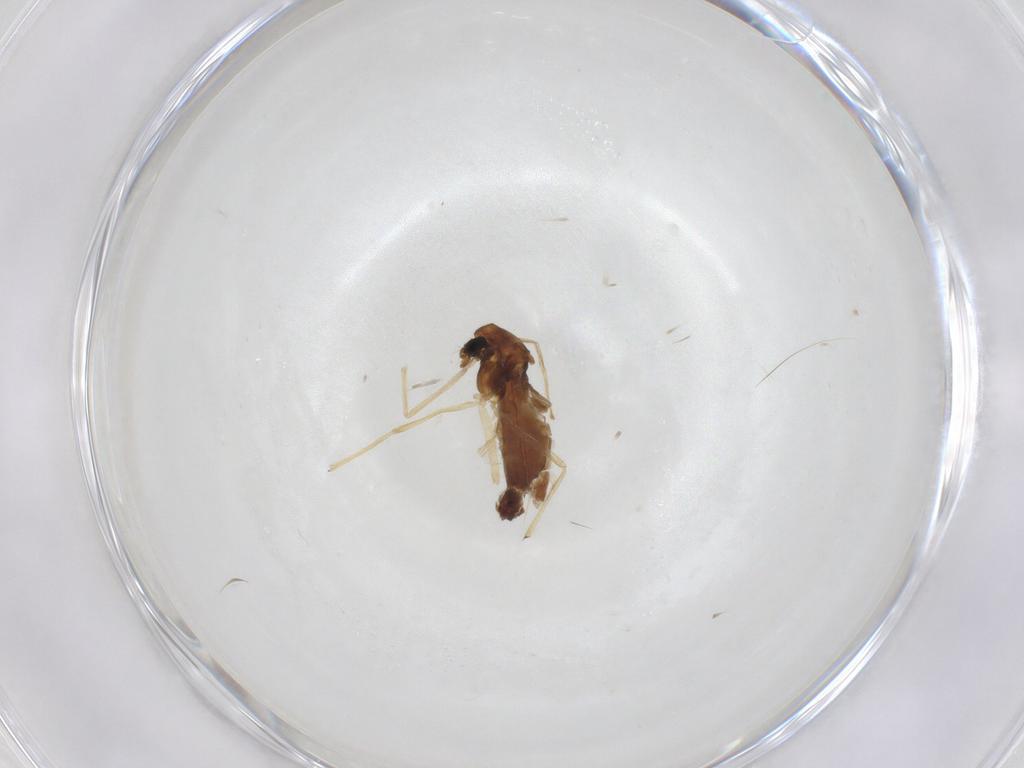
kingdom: Animalia
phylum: Arthropoda
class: Insecta
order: Diptera
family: Chironomidae
